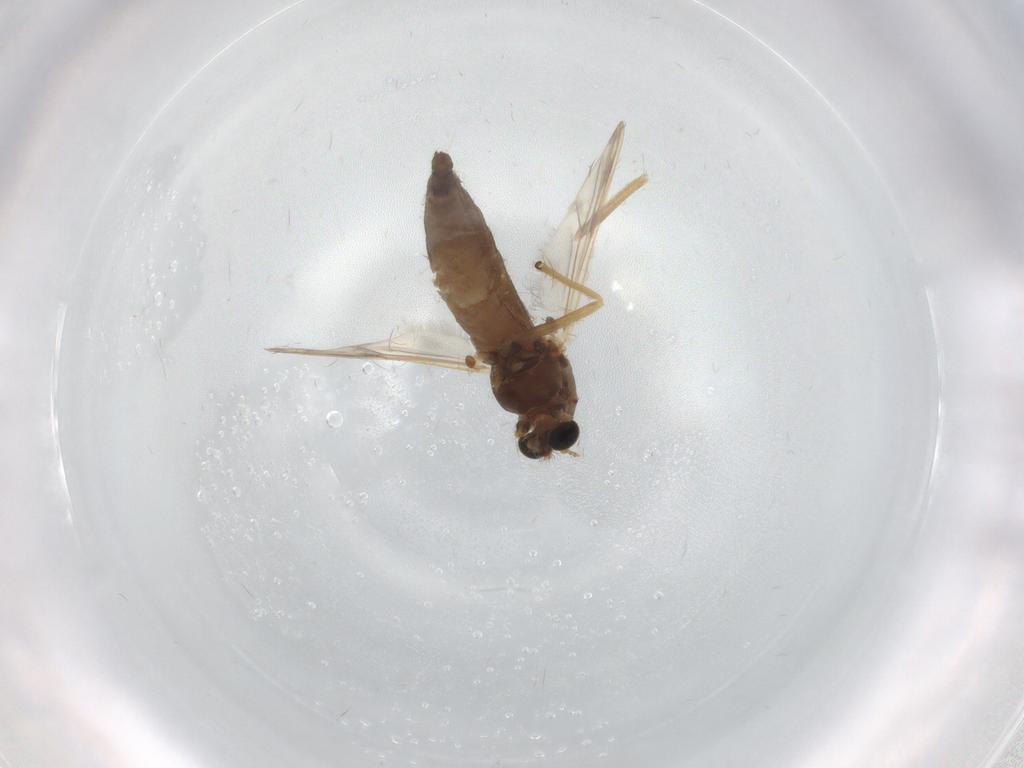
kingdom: Animalia
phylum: Arthropoda
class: Insecta
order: Diptera
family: Chironomidae
